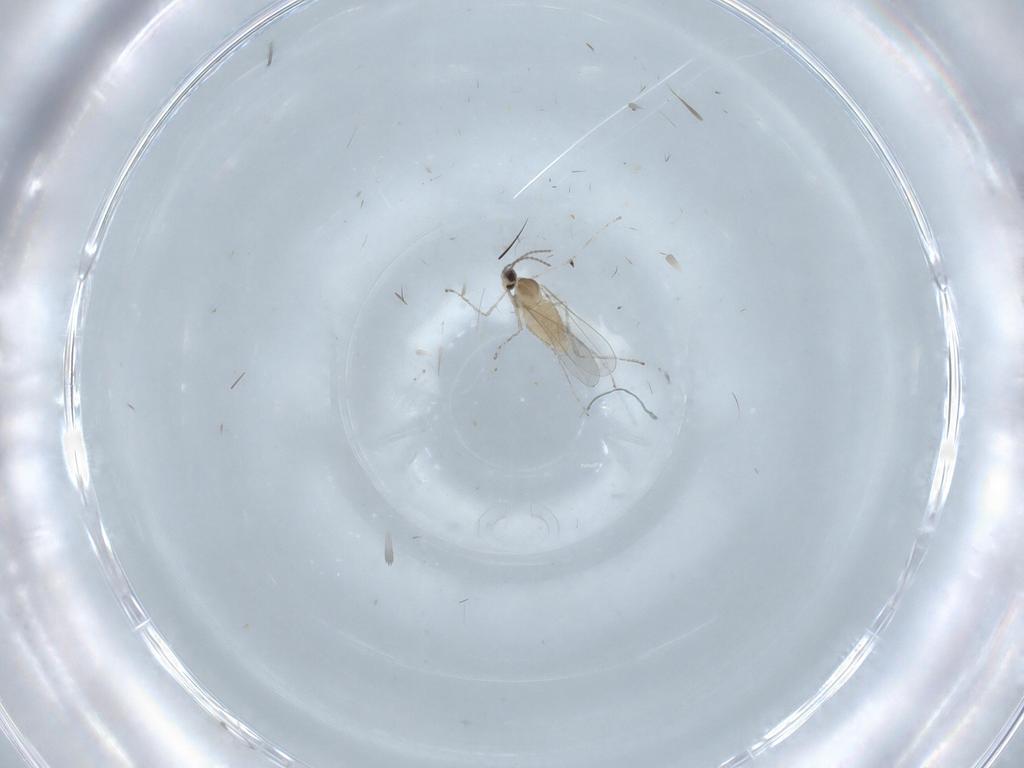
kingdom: Animalia
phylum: Arthropoda
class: Insecta
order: Diptera
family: Cecidomyiidae
